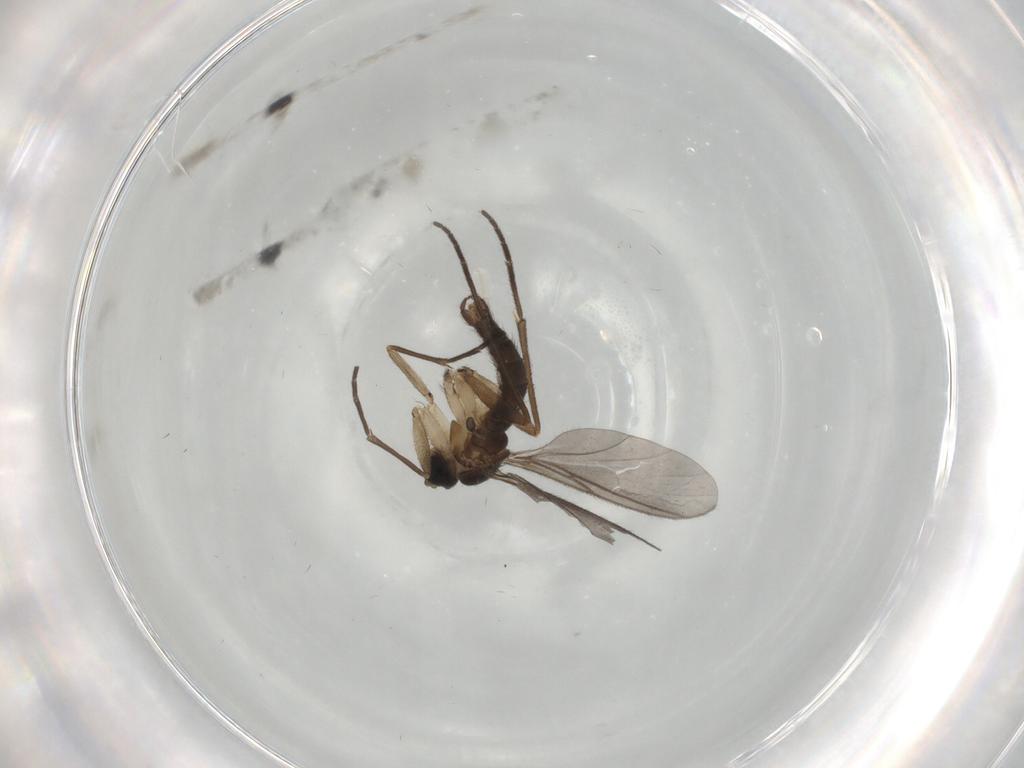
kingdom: Animalia
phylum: Arthropoda
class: Insecta
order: Diptera
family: Sciaridae
